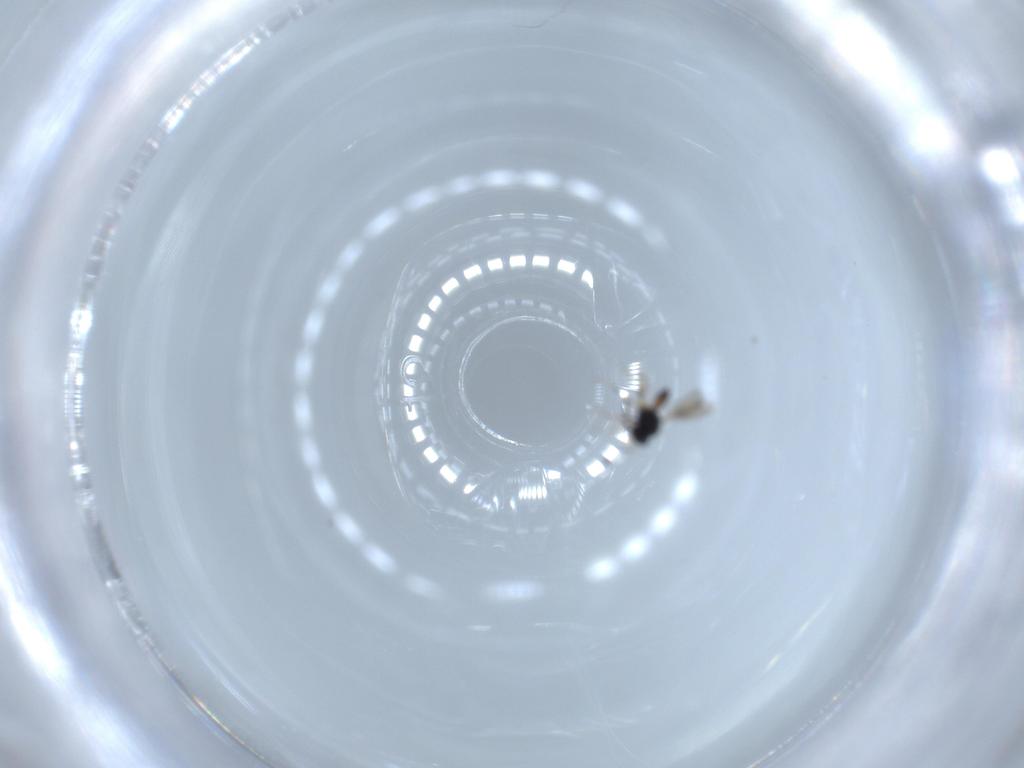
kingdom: Animalia
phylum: Arthropoda
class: Insecta
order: Hymenoptera
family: Scelionidae
